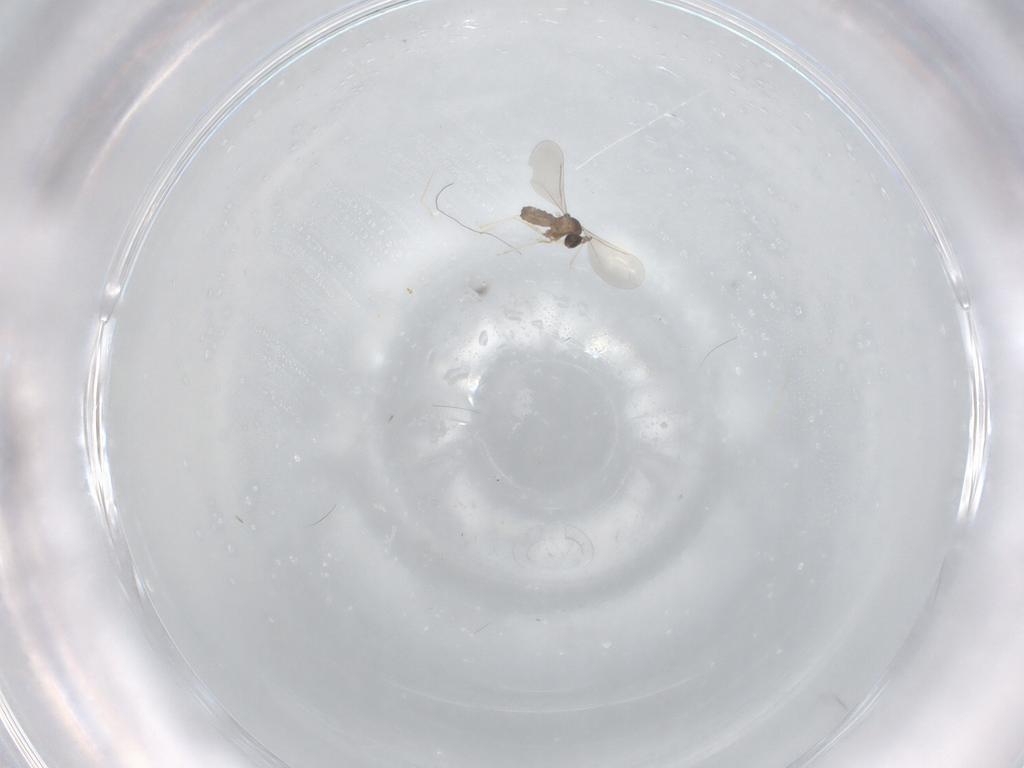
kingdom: Animalia
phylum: Arthropoda
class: Insecta
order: Diptera
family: Cecidomyiidae
